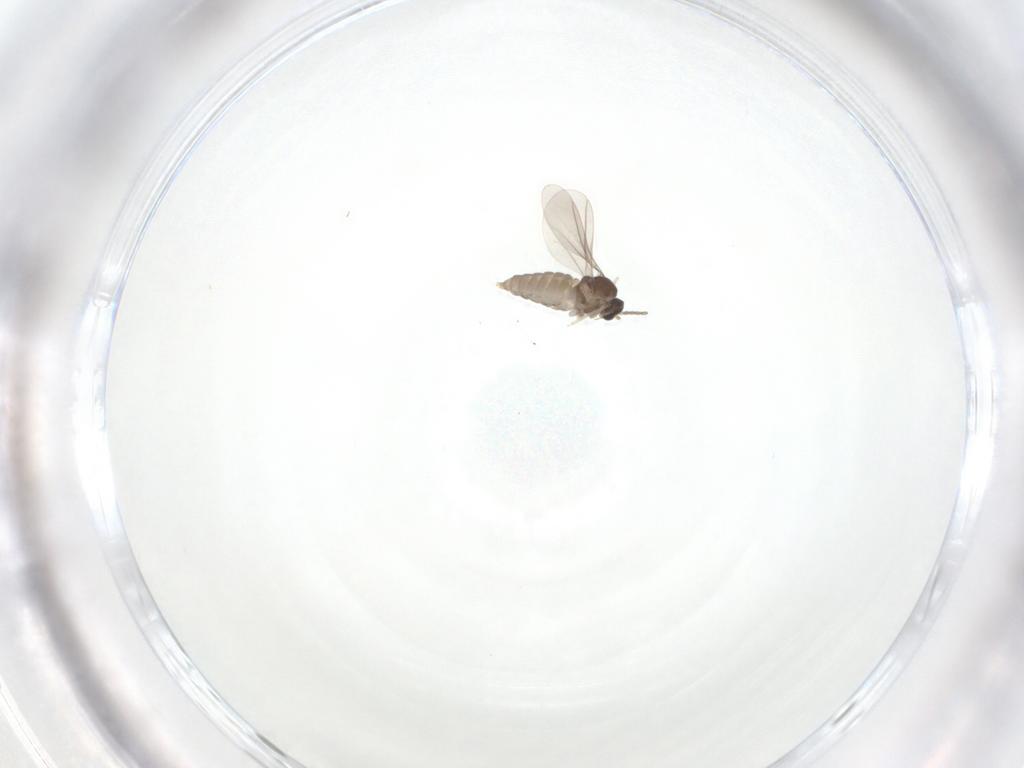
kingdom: Animalia
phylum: Arthropoda
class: Insecta
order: Diptera
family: Cecidomyiidae
